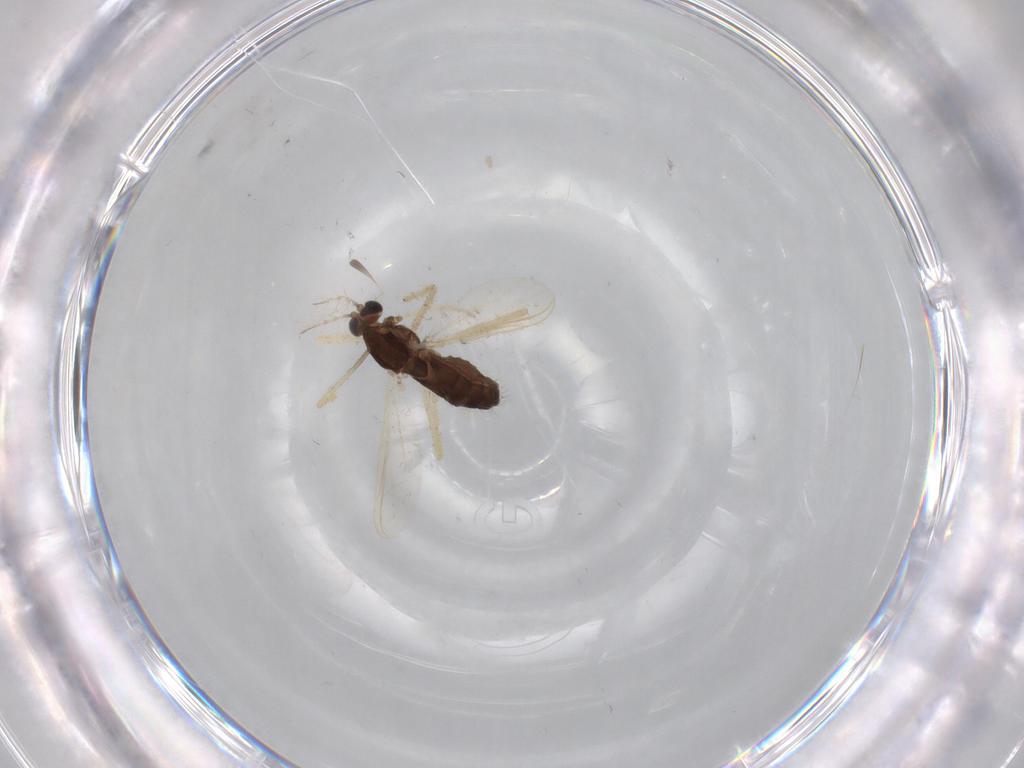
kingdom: Animalia
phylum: Arthropoda
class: Insecta
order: Diptera
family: Chironomidae
